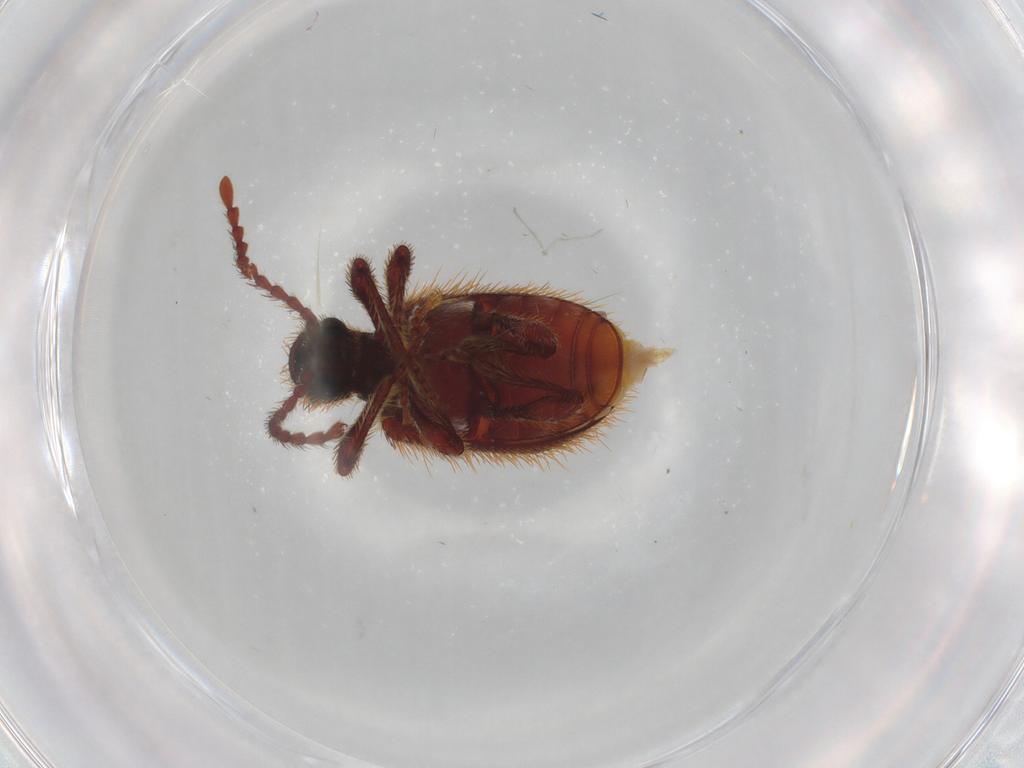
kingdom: Animalia
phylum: Arthropoda
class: Insecta
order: Coleoptera
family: Ptinidae
